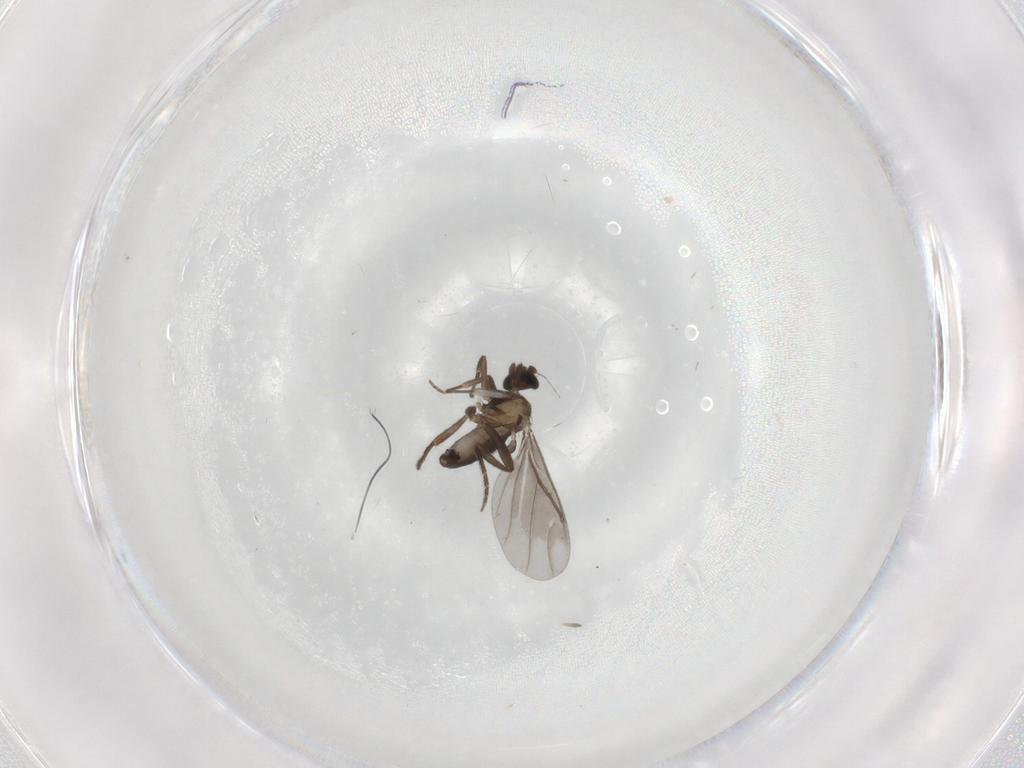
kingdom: Animalia
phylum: Arthropoda
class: Insecta
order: Diptera
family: Phoridae
